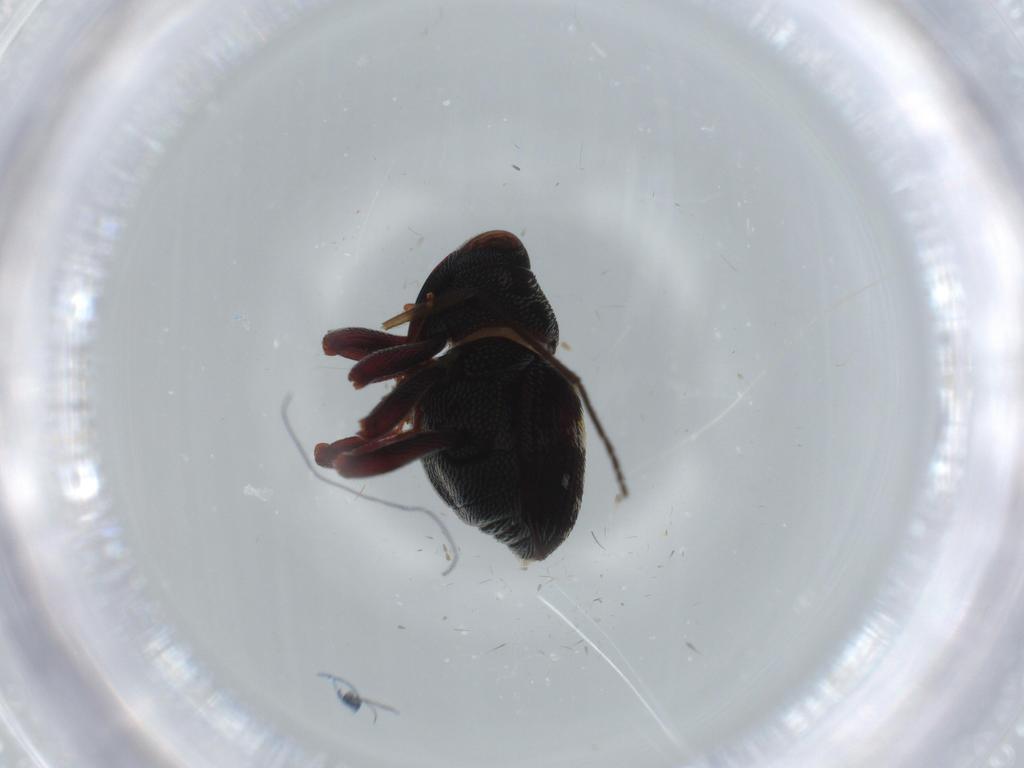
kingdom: Animalia
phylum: Arthropoda
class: Insecta
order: Coleoptera
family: Curculionidae
